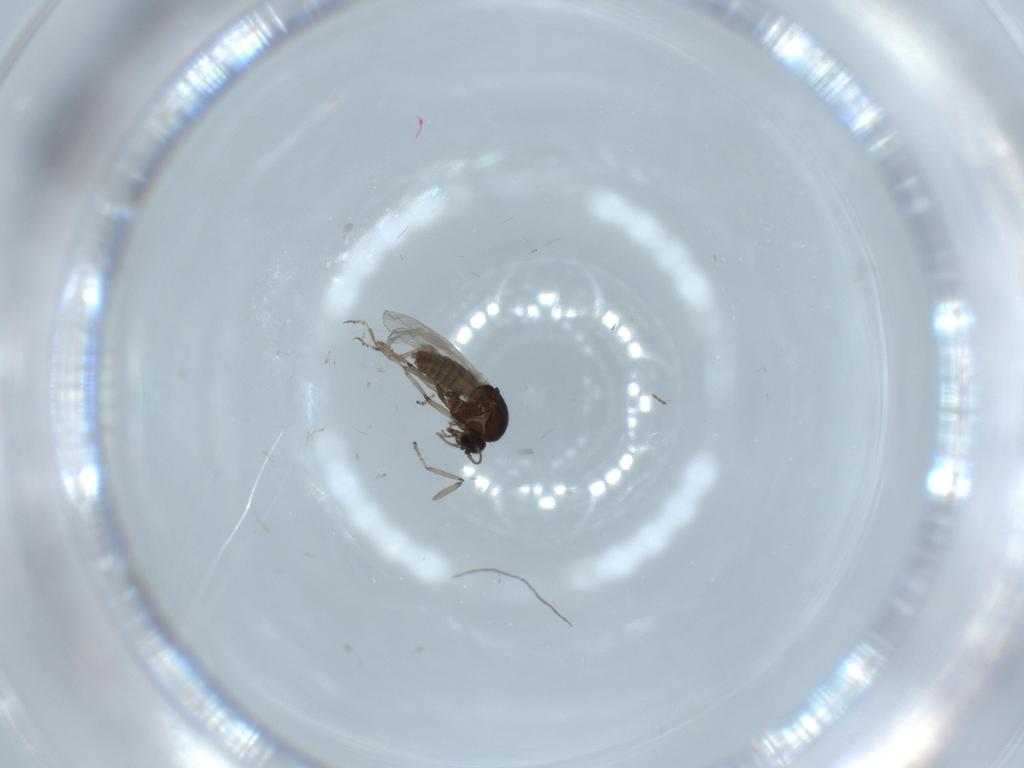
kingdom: Animalia
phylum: Arthropoda
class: Insecta
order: Diptera
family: Scathophagidae
